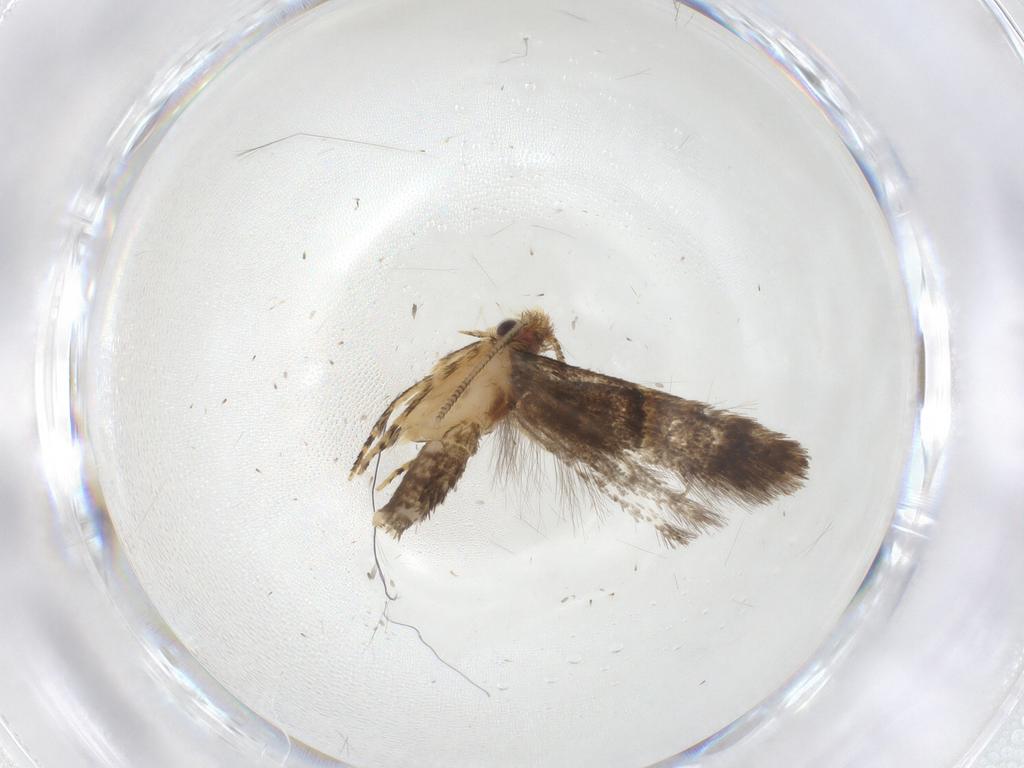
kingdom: Animalia
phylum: Arthropoda
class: Insecta
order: Lepidoptera
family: Tineidae
